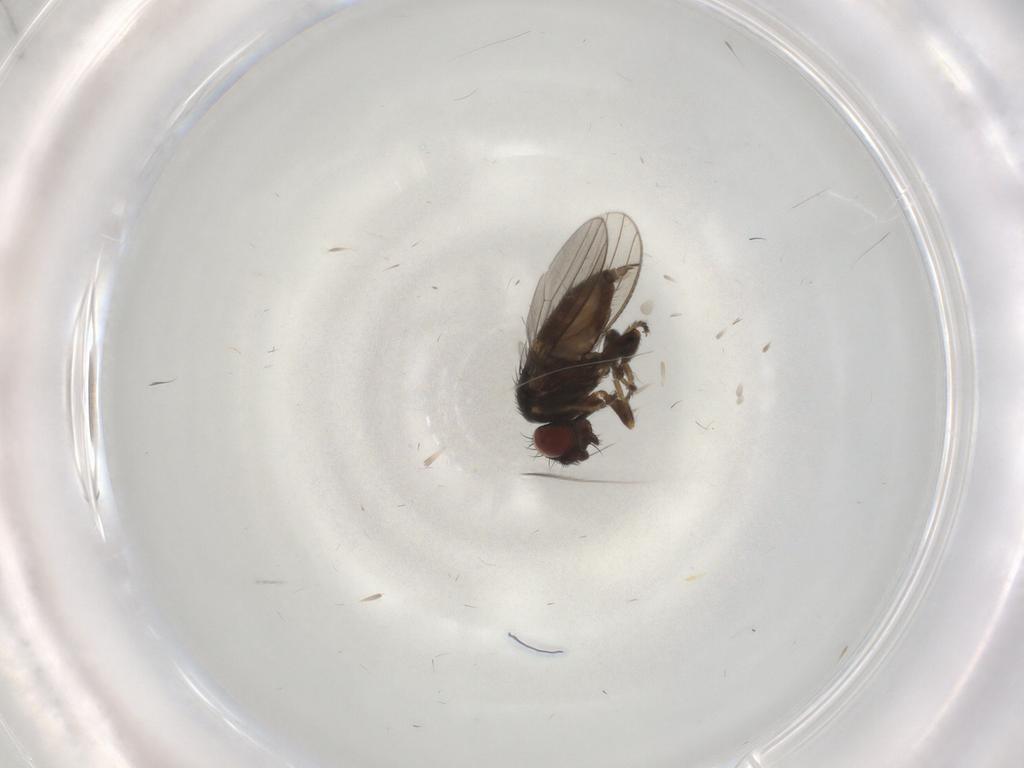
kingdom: Animalia
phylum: Arthropoda
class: Insecta
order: Diptera
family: Milichiidae
